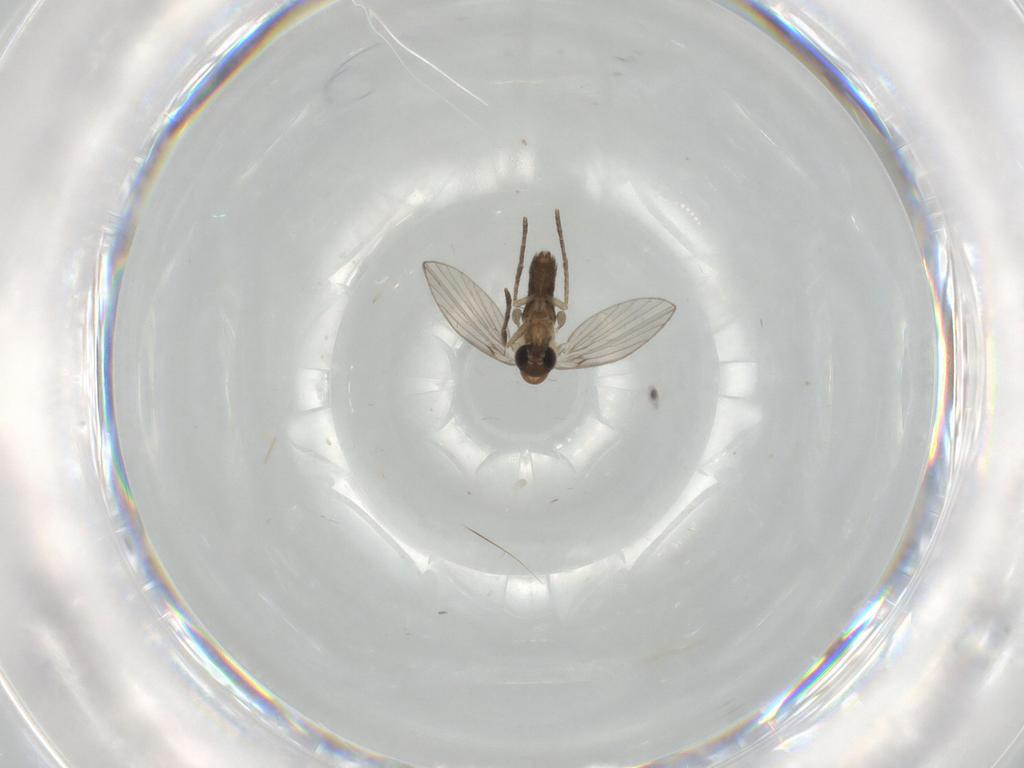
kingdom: Animalia
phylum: Arthropoda
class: Insecta
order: Diptera
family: Psychodidae
